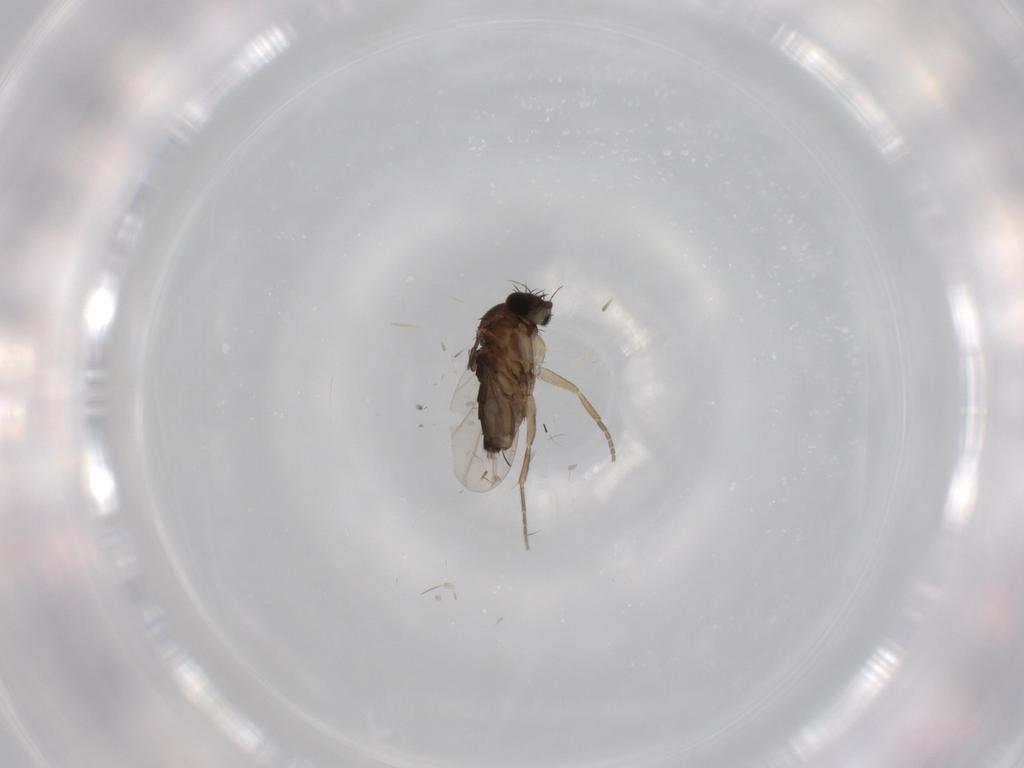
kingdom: Animalia
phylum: Arthropoda
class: Insecta
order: Diptera
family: Phoridae
